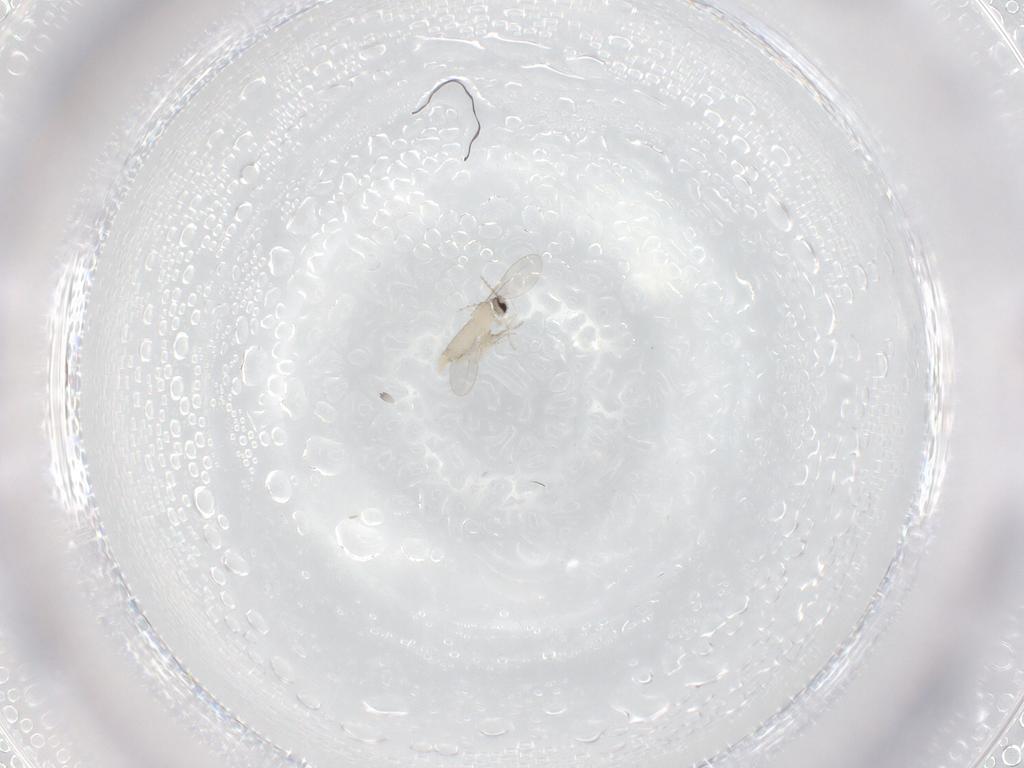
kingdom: Animalia
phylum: Arthropoda
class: Insecta
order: Diptera
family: Cecidomyiidae
